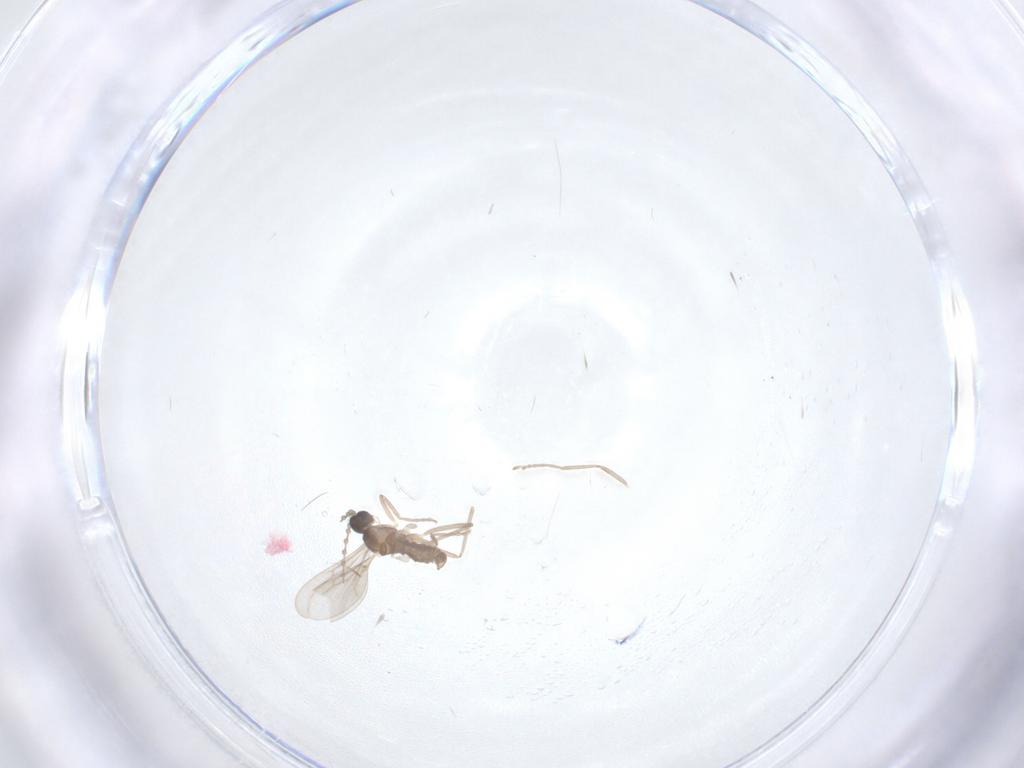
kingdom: Animalia
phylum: Arthropoda
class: Insecta
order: Diptera
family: Cecidomyiidae
